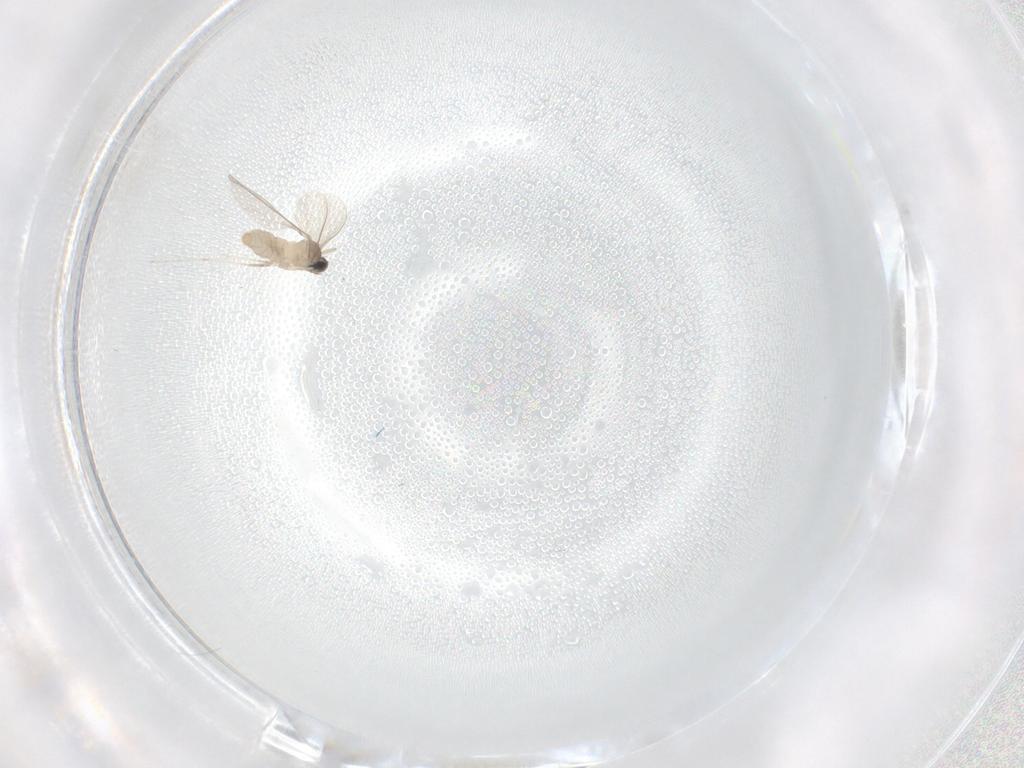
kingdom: Animalia
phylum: Arthropoda
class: Insecta
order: Diptera
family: Cecidomyiidae
